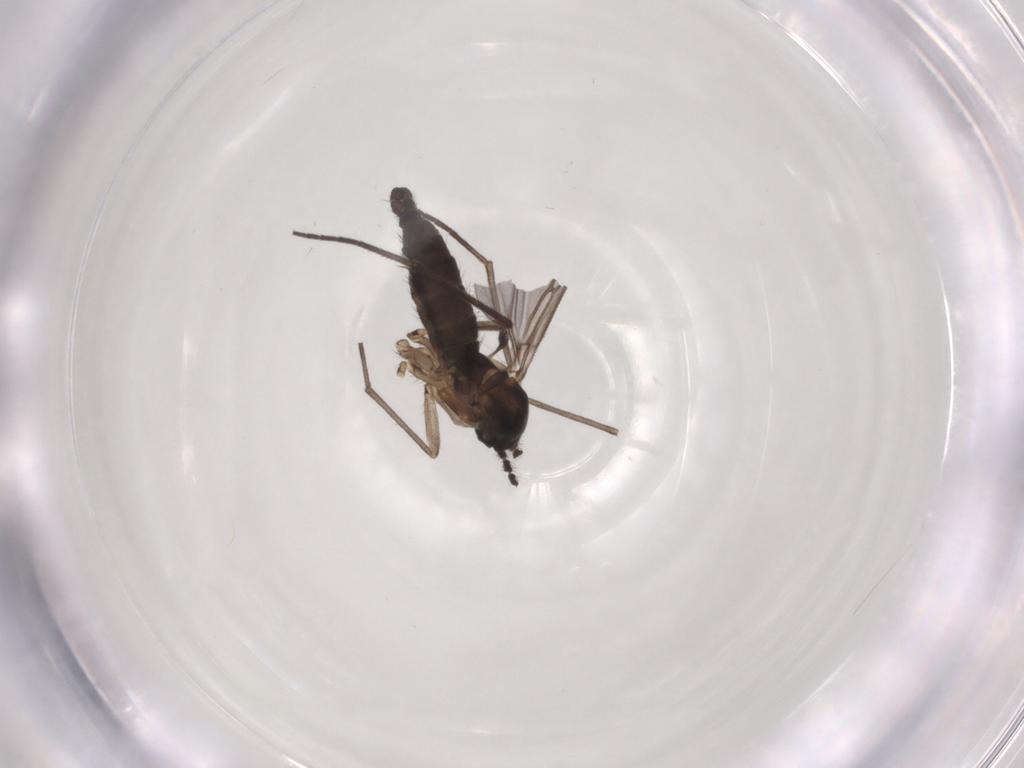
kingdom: Animalia
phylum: Arthropoda
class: Insecta
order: Diptera
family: Sciaridae
